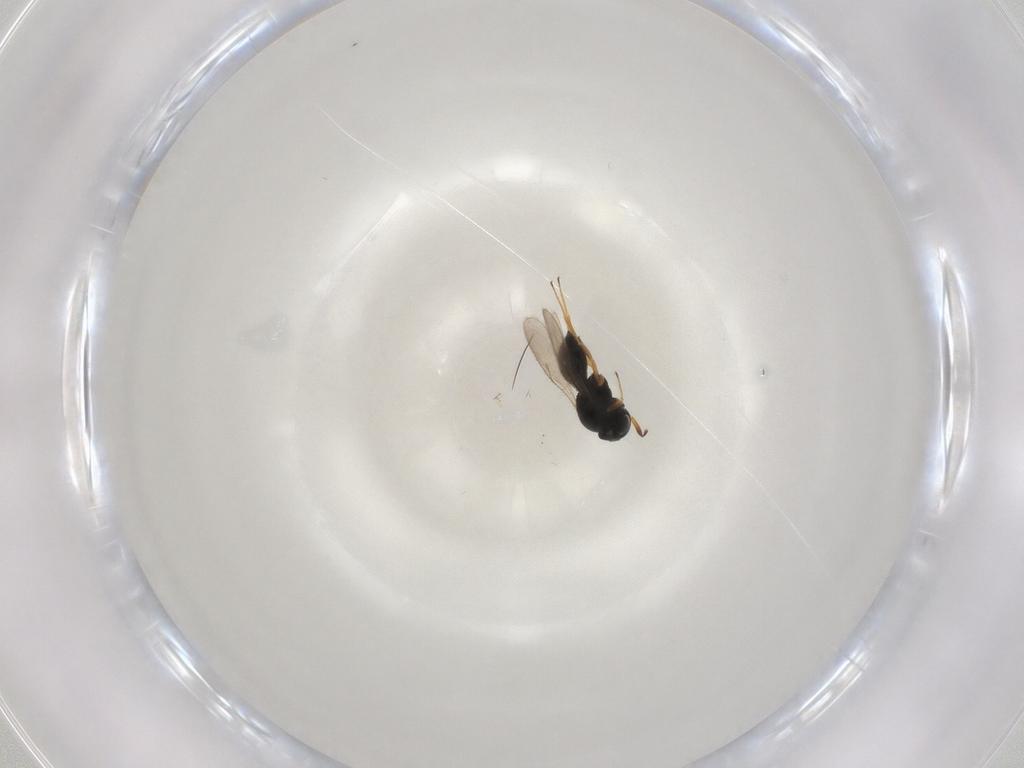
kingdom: Animalia
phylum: Arthropoda
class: Insecta
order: Hymenoptera
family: Scelionidae
